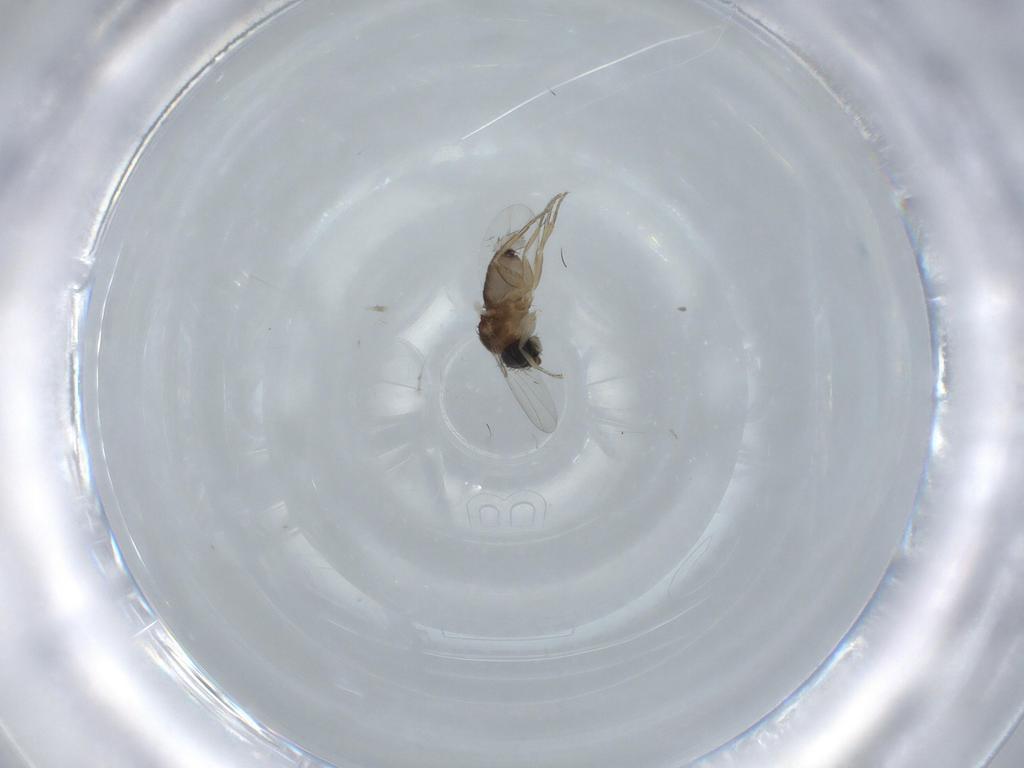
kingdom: Animalia
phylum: Arthropoda
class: Insecta
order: Diptera
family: Phoridae
